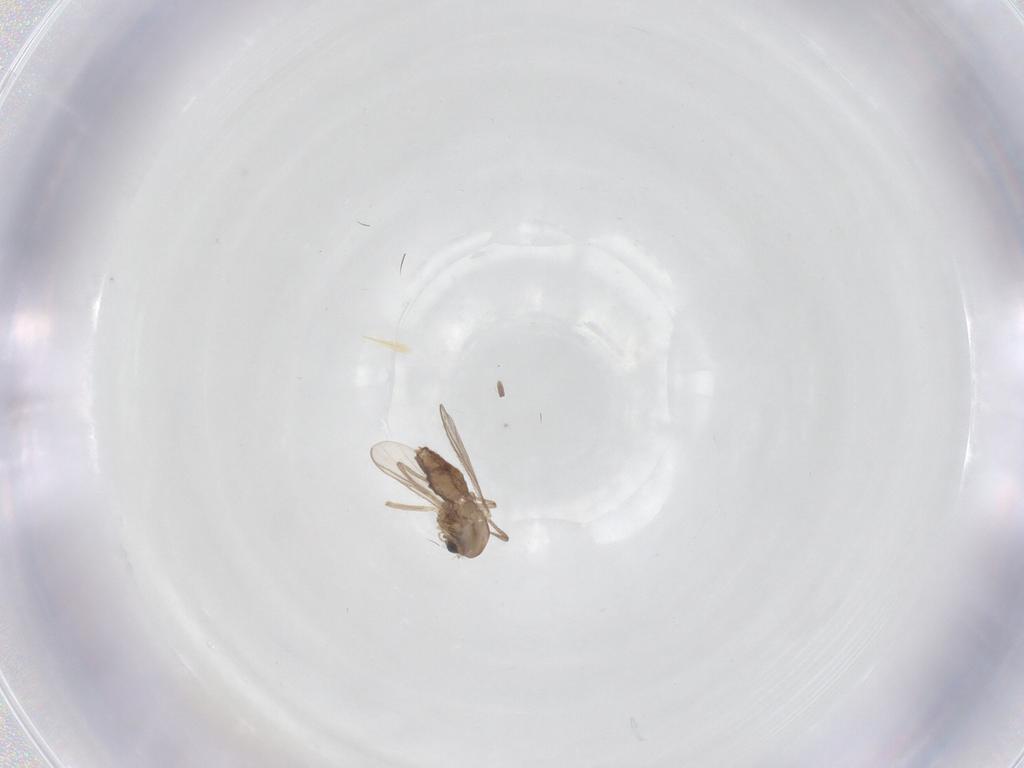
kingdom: Animalia
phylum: Arthropoda
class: Insecta
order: Diptera
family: Chironomidae
